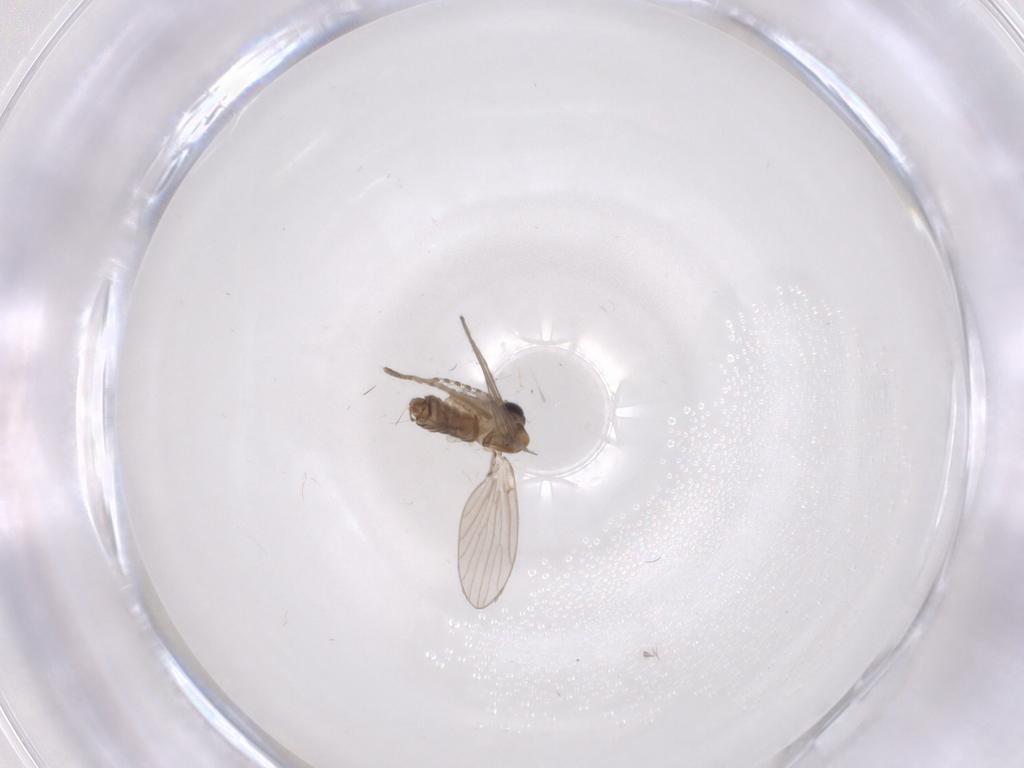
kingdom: Animalia
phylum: Arthropoda
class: Insecta
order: Diptera
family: Psychodidae
